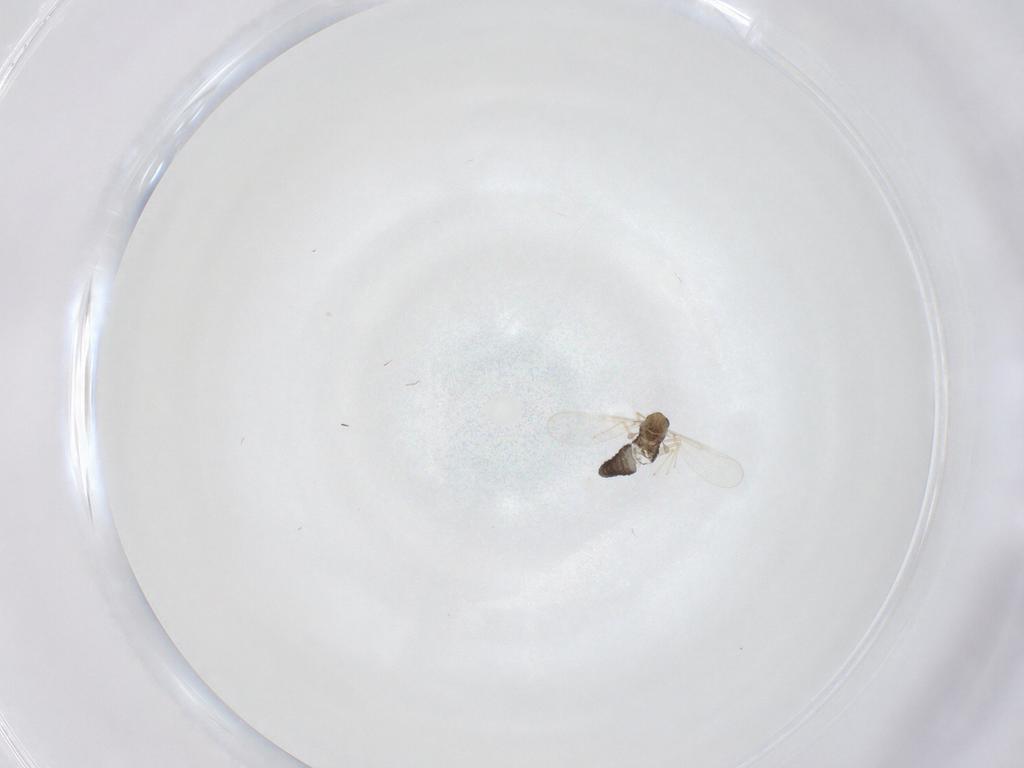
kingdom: Animalia
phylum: Arthropoda
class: Insecta
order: Diptera
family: Chironomidae
